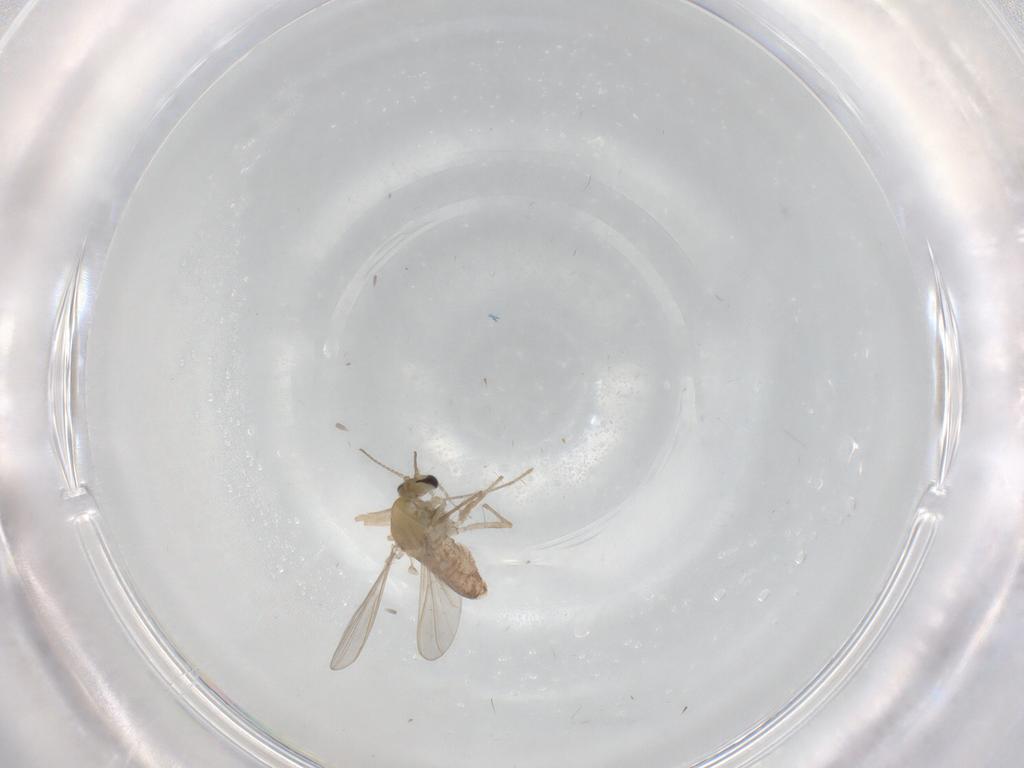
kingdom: Animalia
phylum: Arthropoda
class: Insecta
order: Diptera
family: Chironomidae
